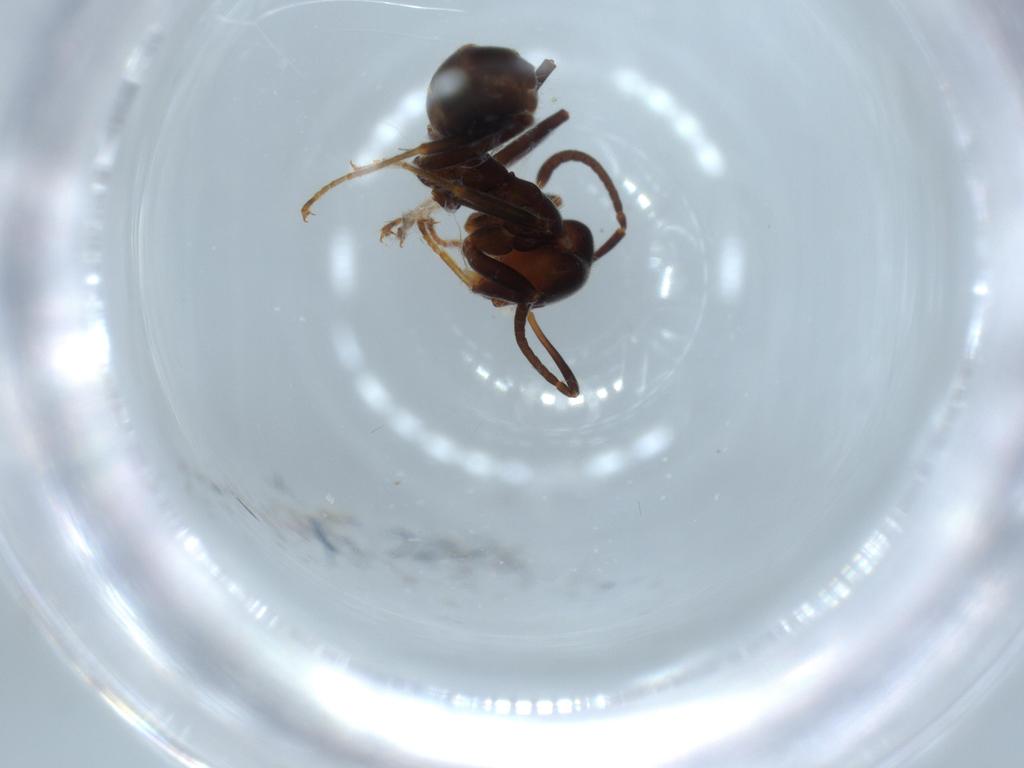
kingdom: Animalia
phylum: Arthropoda
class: Insecta
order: Hymenoptera
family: Formicidae
